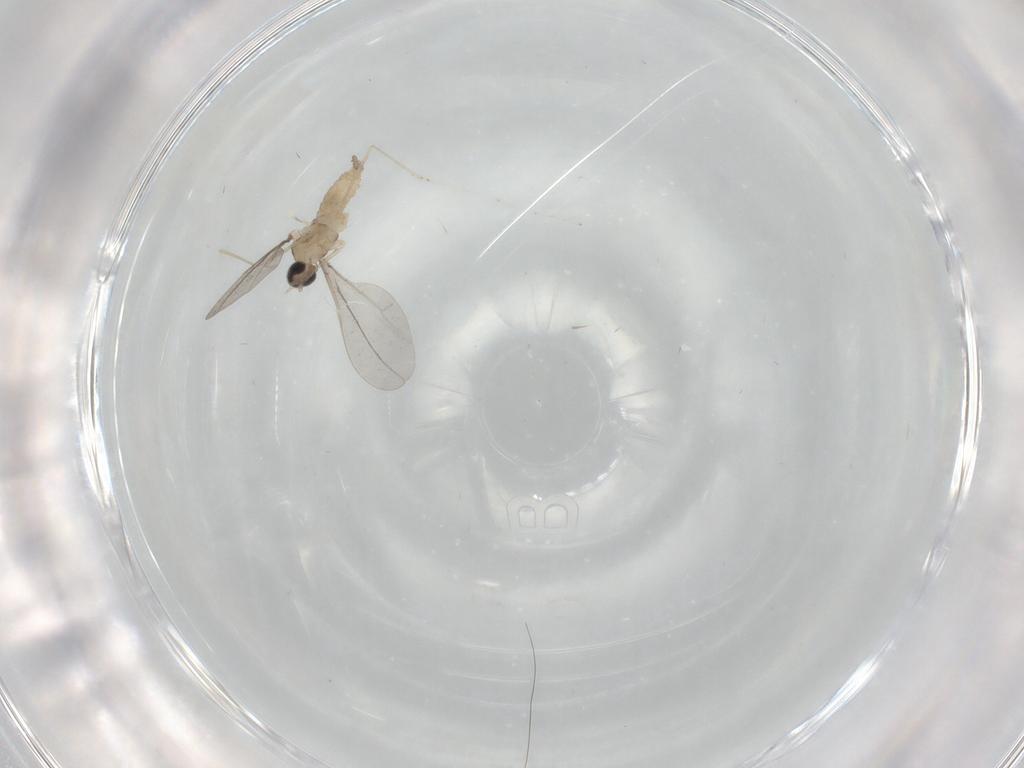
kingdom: Animalia
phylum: Arthropoda
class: Insecta
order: Diptera
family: Cecidomyiidae
